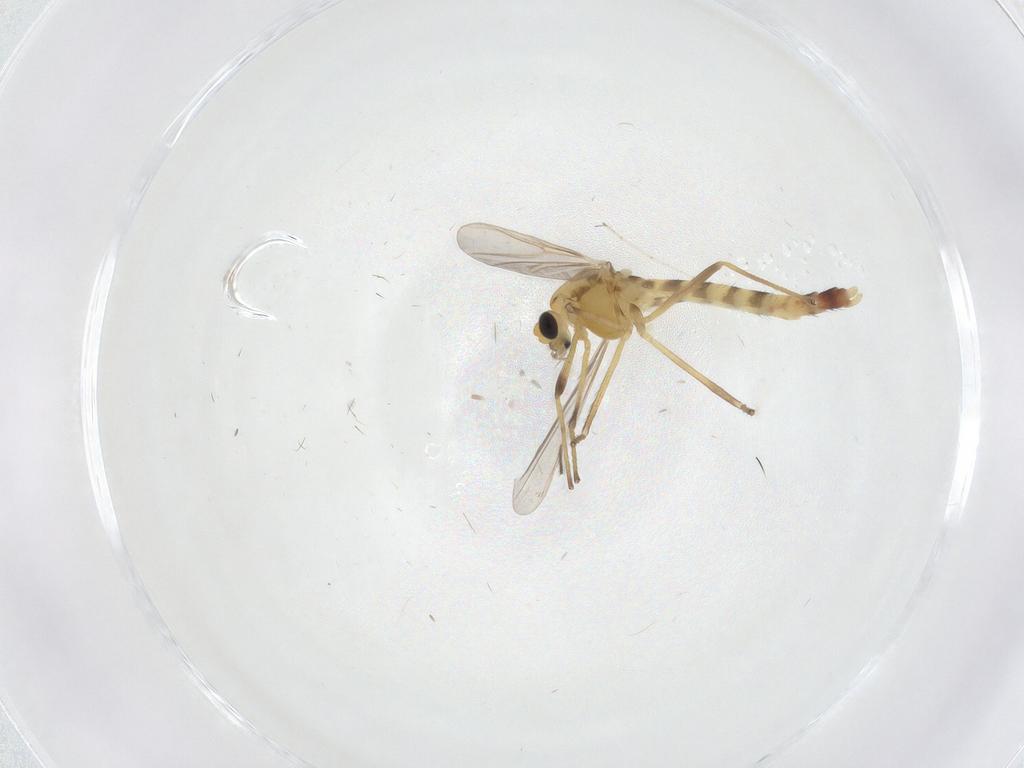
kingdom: Animalia
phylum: Arthropoda
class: Insecta
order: Diptera
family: Chironomidae
